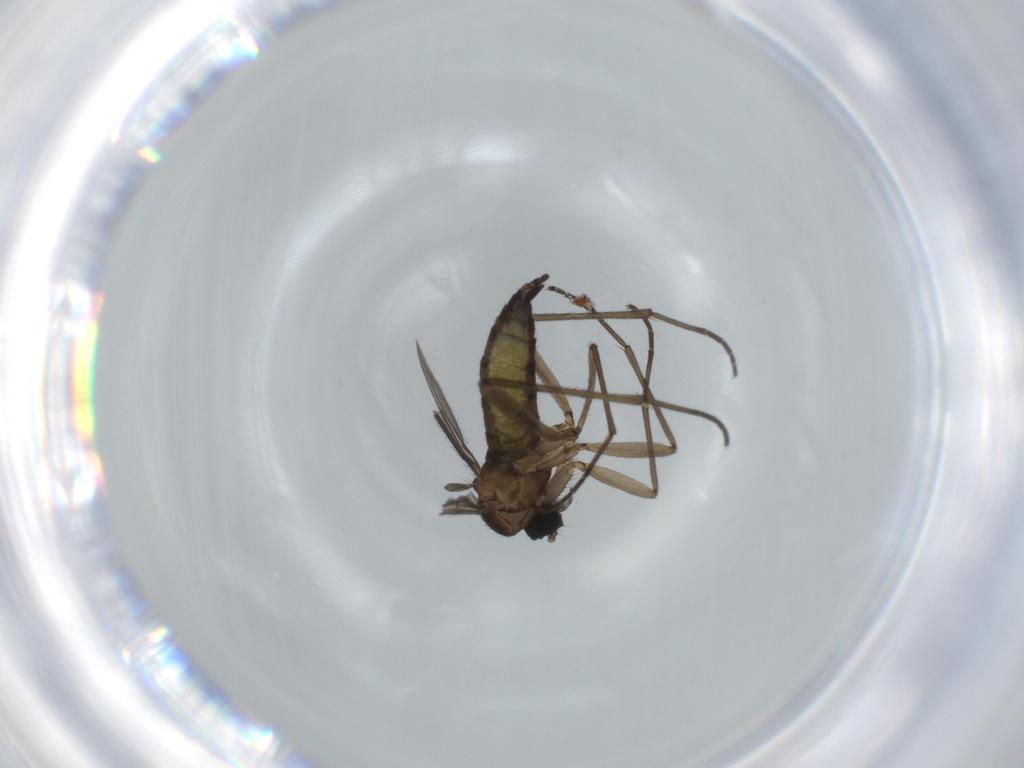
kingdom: Animalia
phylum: Arthropoda
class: Insecta
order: Diptera
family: Sciaridae
